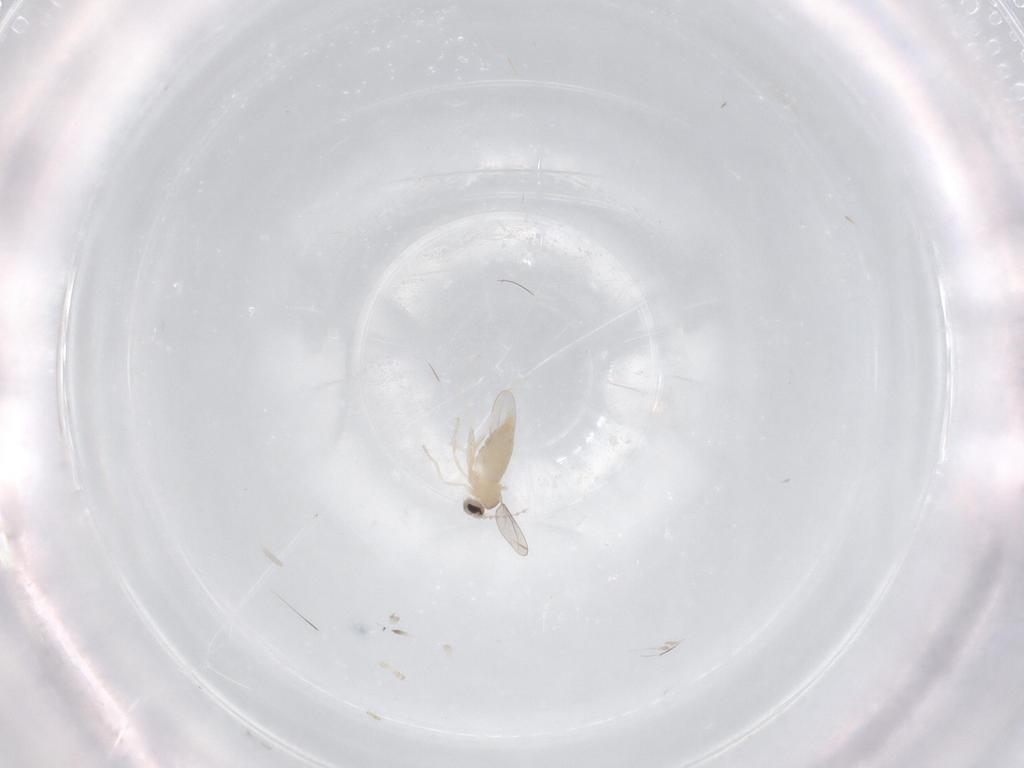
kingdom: Animalia
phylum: Arthropoda
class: Insecta
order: Diptera
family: Cecidomyiidae
